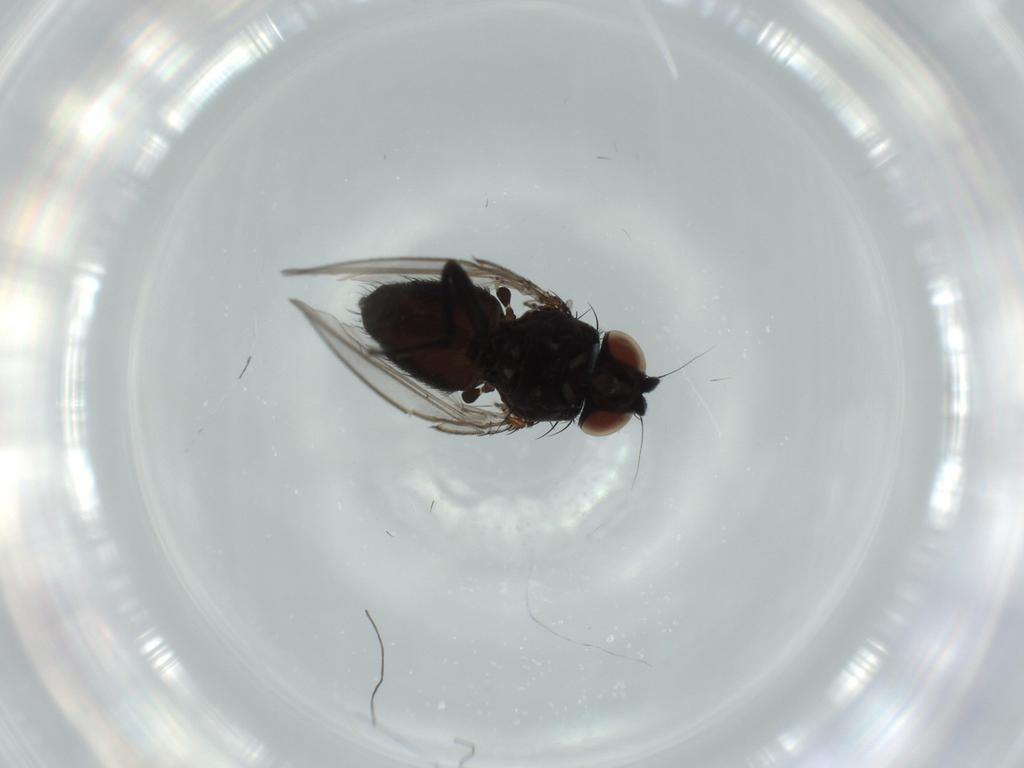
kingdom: Animalia
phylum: Arthropoda
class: Insecta
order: Diptera
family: Cecidomyiidae
